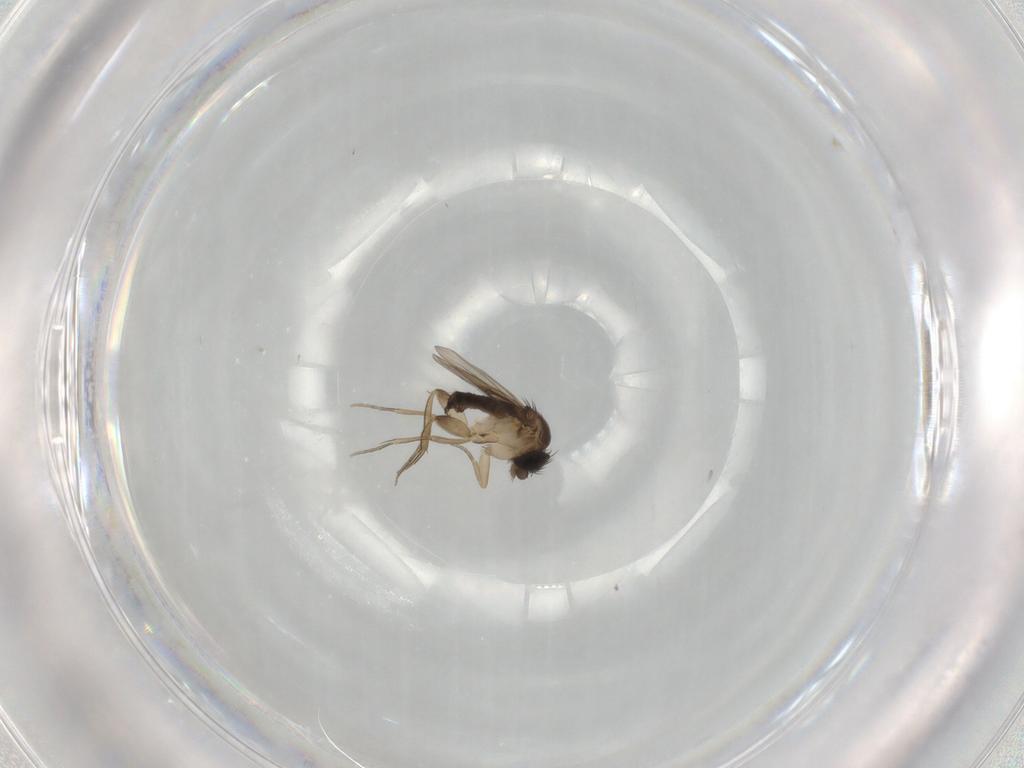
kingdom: Animalia
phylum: Arthropoda
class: Insecta
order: Diptera
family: Phoridae
